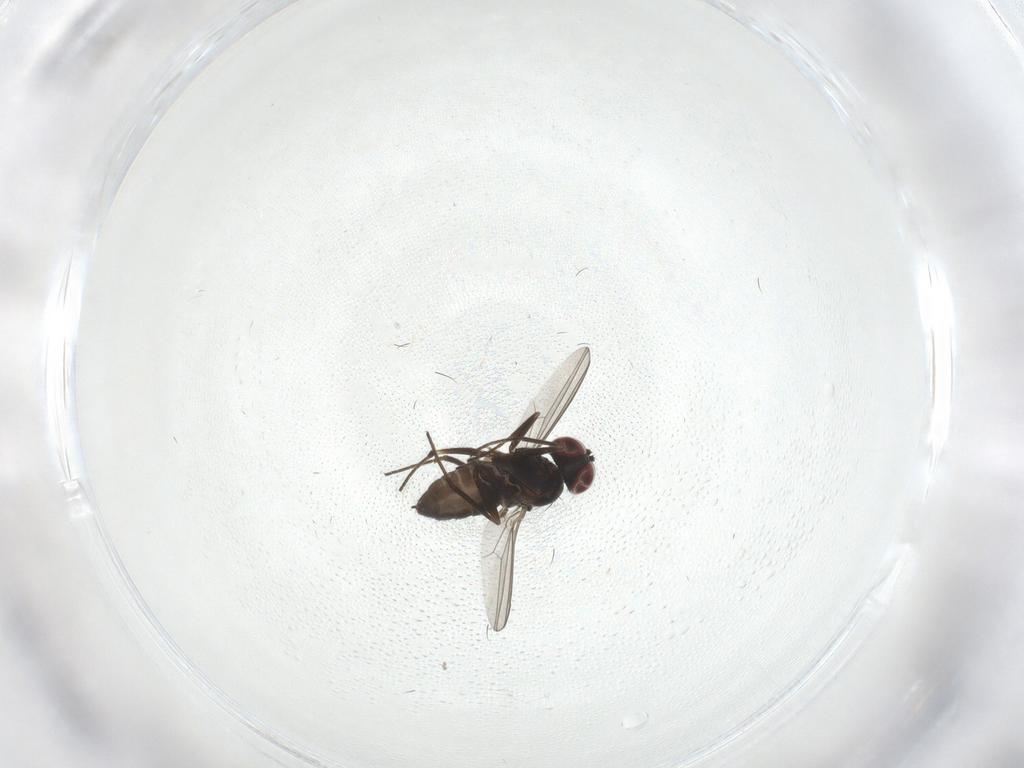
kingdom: Animalia
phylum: Arthropoda
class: Insecta
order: Diptera
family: Dolichopodidae
